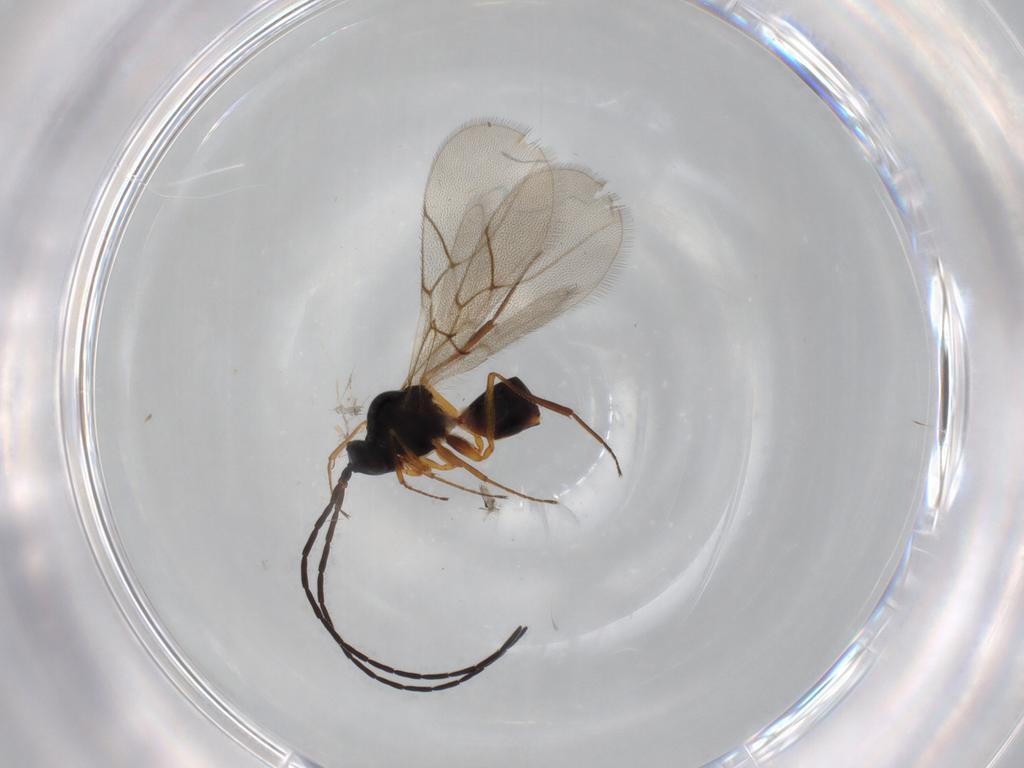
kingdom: Animalia
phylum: Arthropoda
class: Insecta
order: Hymenoptera
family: Figitidae
